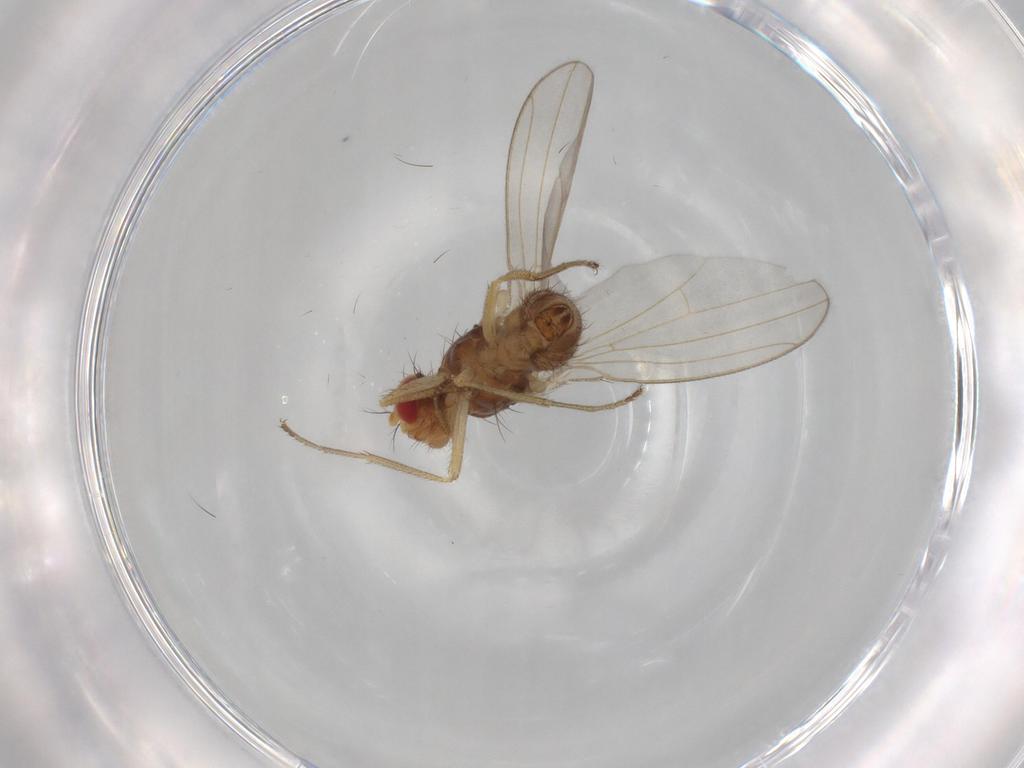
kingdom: Animalia
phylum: Arthropoda
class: Insecta
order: Diptera
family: Drosophilidae
